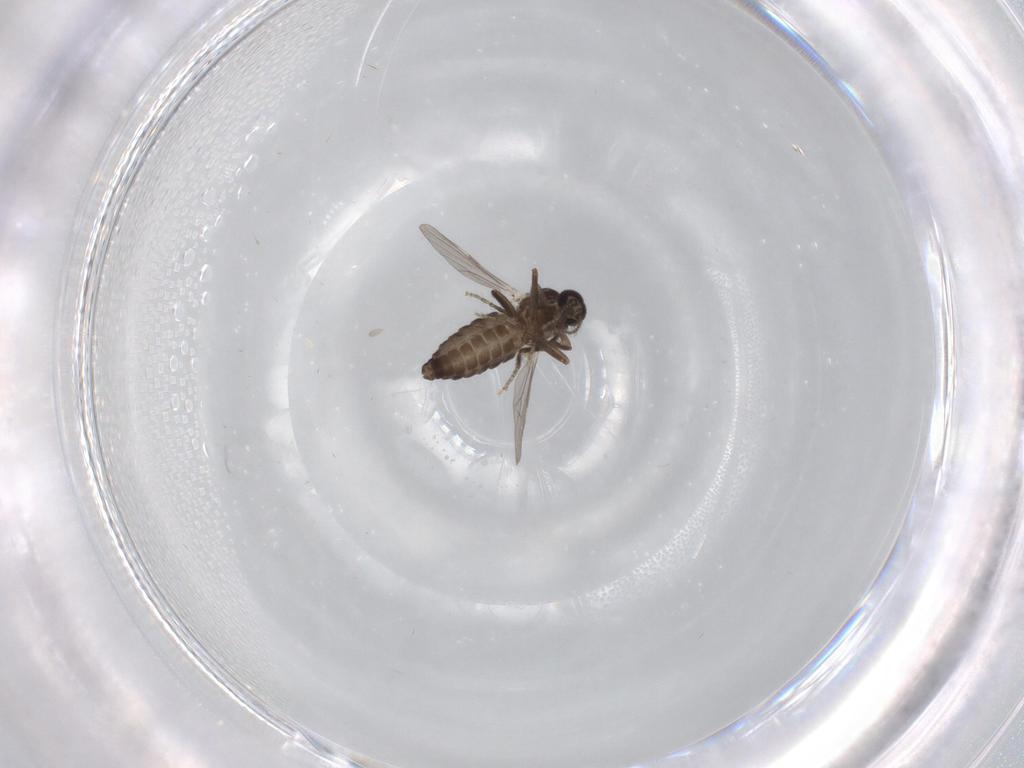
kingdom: Animalia
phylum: Arthropoda
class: Insecta
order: Diptera
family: Ceratopogonidae
